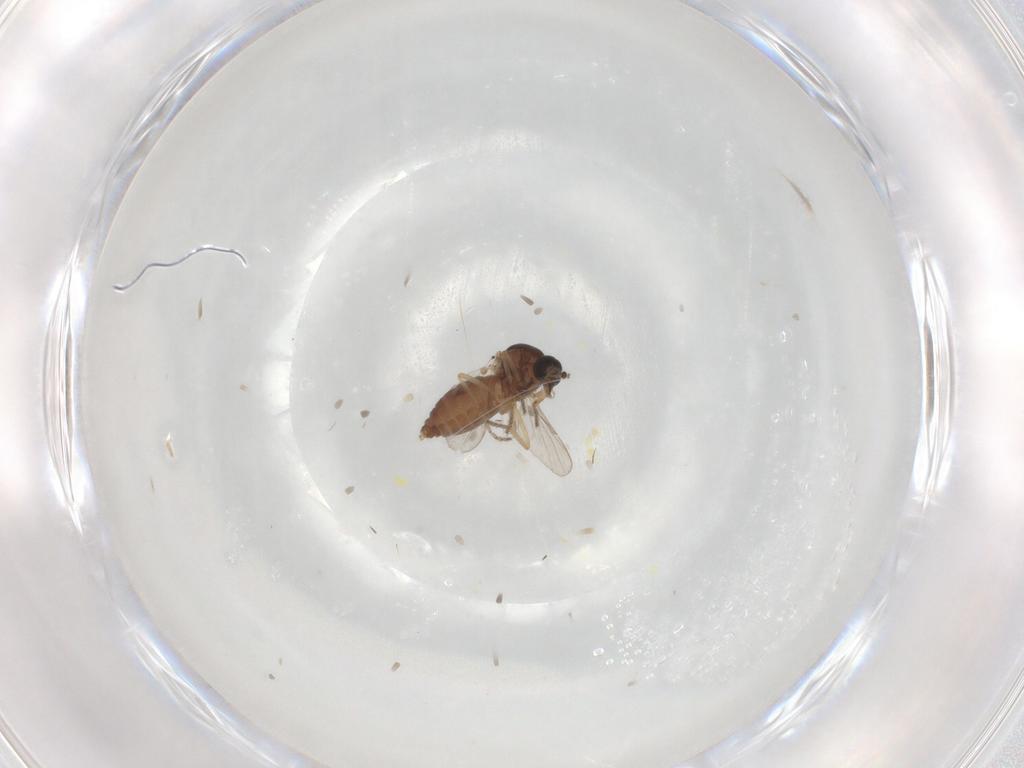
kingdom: Animalia
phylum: Arthropoda
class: Insecta
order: Diptera
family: Ceratopogonidae
